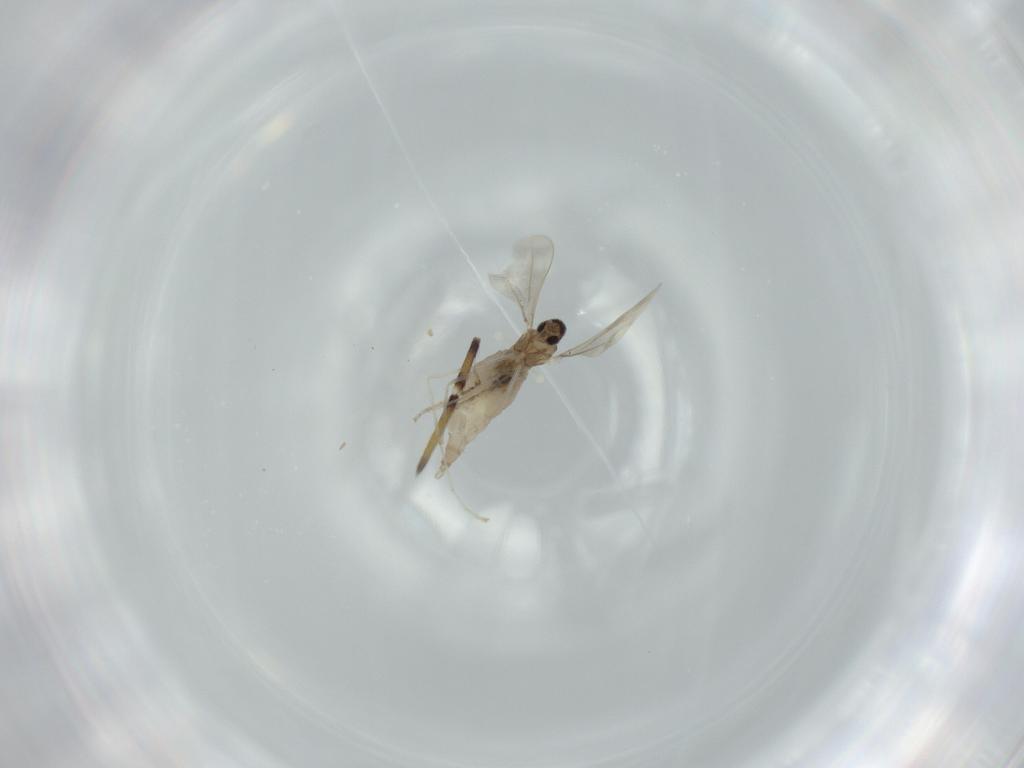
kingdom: Animalia
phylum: Arthropoda
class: Insecta
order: Diptera
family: Cecidomyiidae
